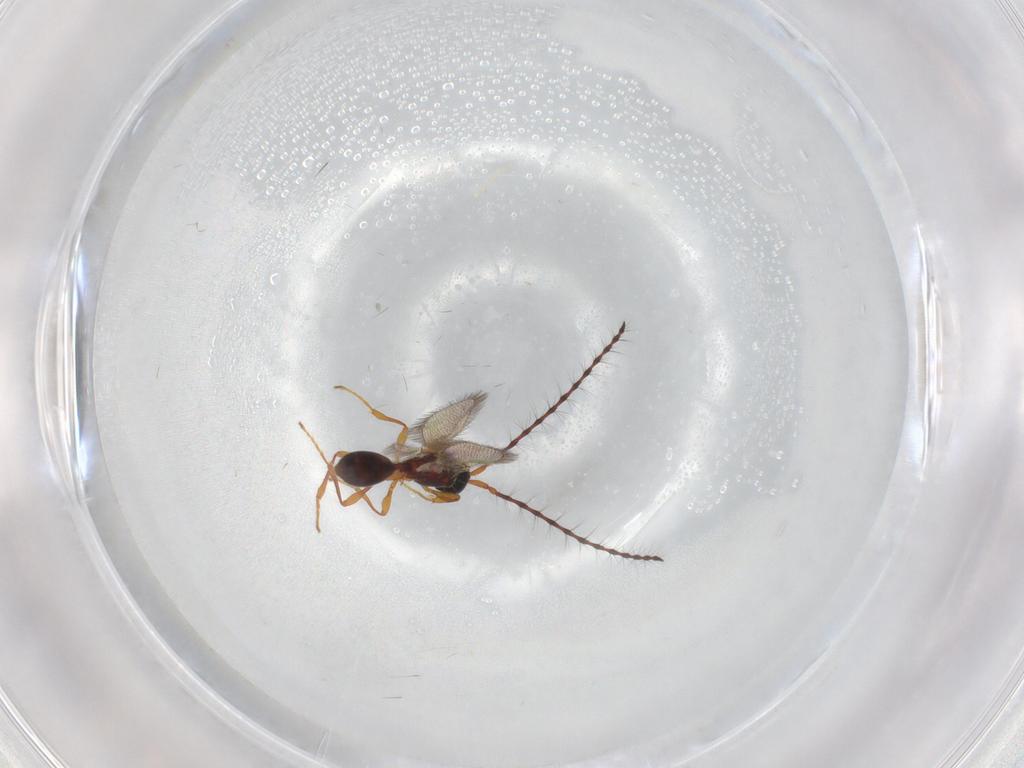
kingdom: Animalia
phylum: Arthropoda
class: Insecta
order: Hymenoptera
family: Diapriidae
